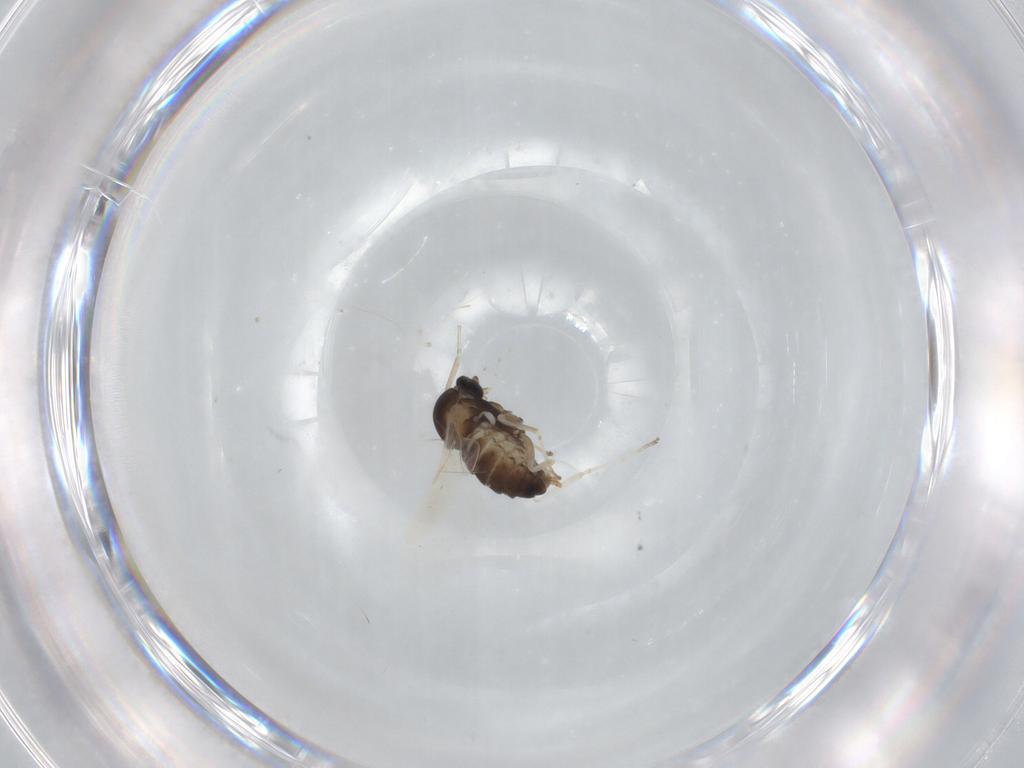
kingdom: Animalia
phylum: Arthropoda
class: Insecta
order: Diptera
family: Cecidomyiidae
